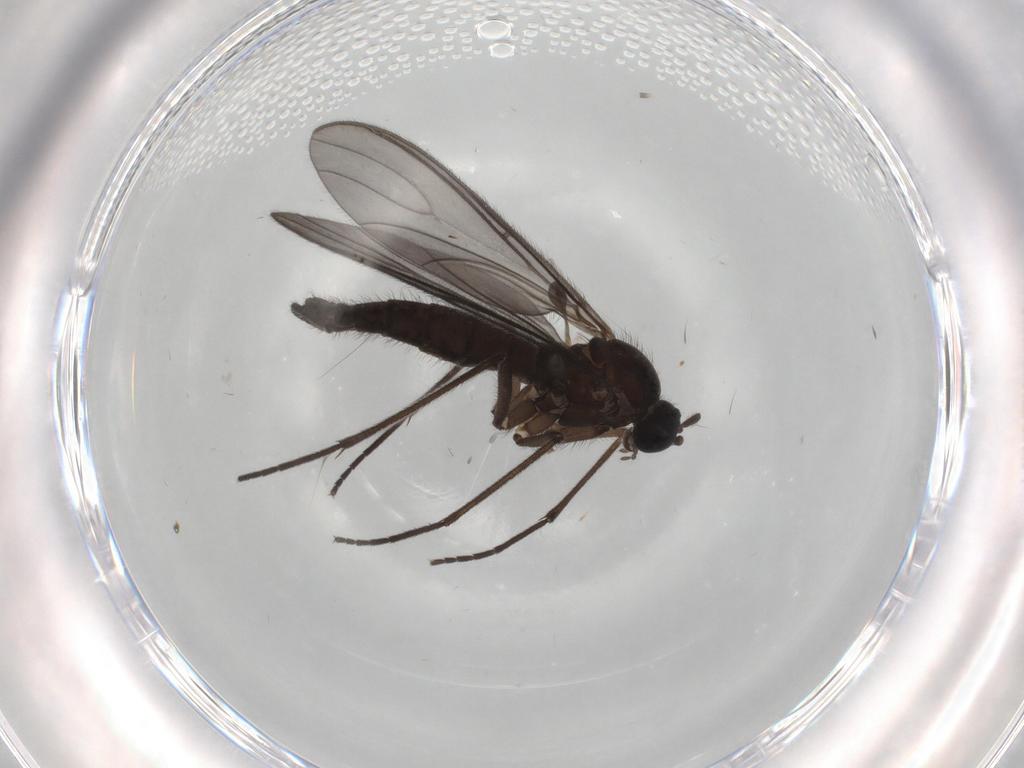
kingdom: Animalia
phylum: Arthropoda
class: Insecta
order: Diptera
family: Sciaridae
